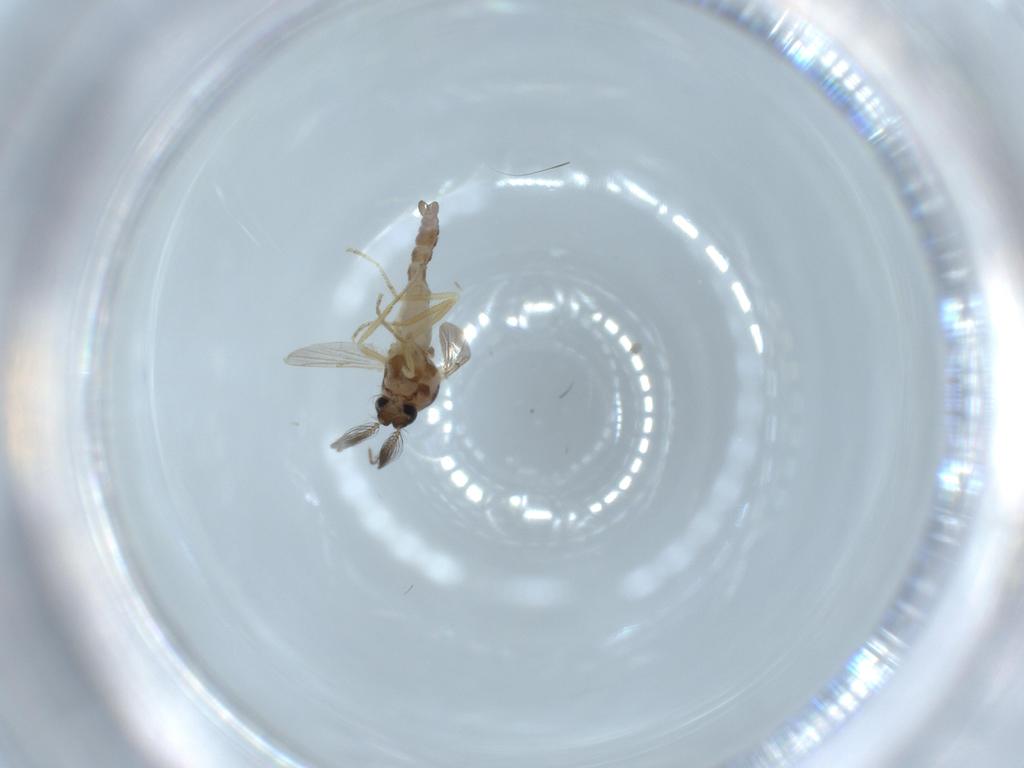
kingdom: Animalia
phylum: Arthropoda
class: Insecta
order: Diptera
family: Ceratopogonidae
